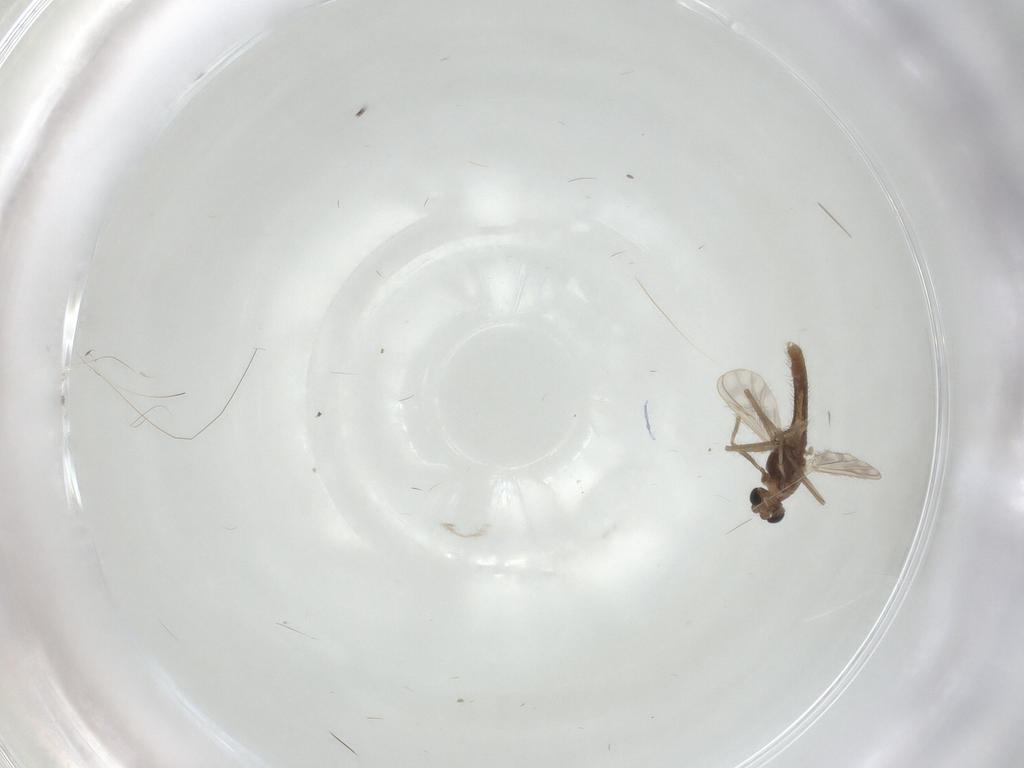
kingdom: Animalia
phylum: Arthropoda
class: Insecta
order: Diptera
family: Chironomidae
